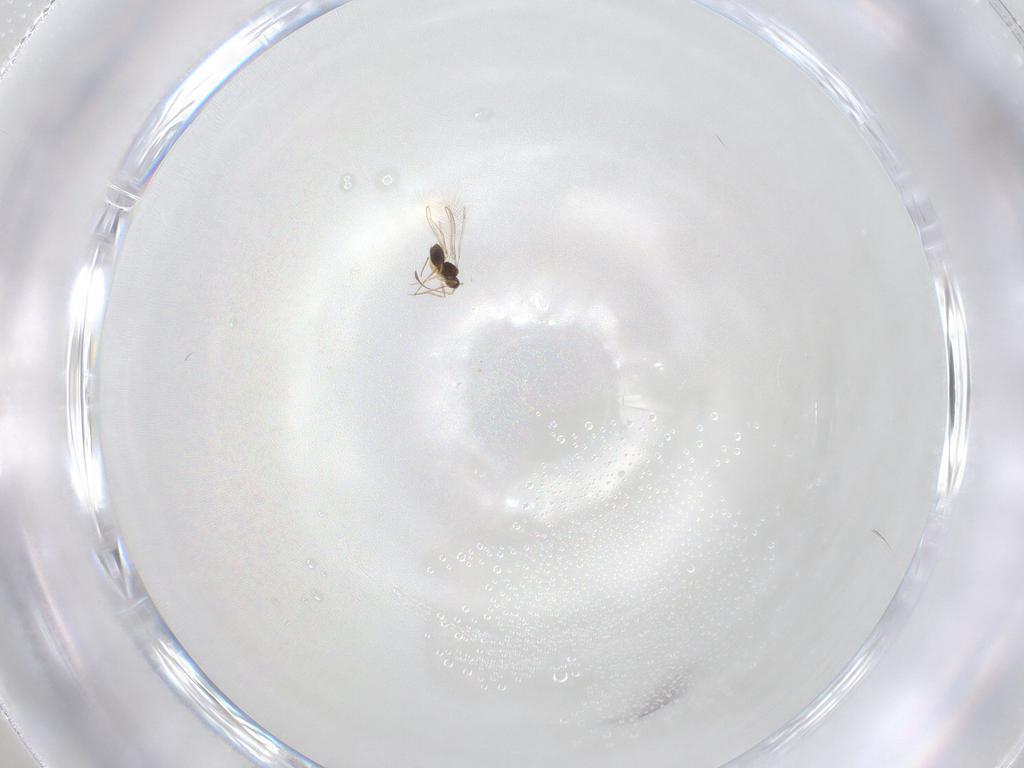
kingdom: Animalia
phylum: Arthropoda
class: Insecta
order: Hymenoptera
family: Mymaridae
